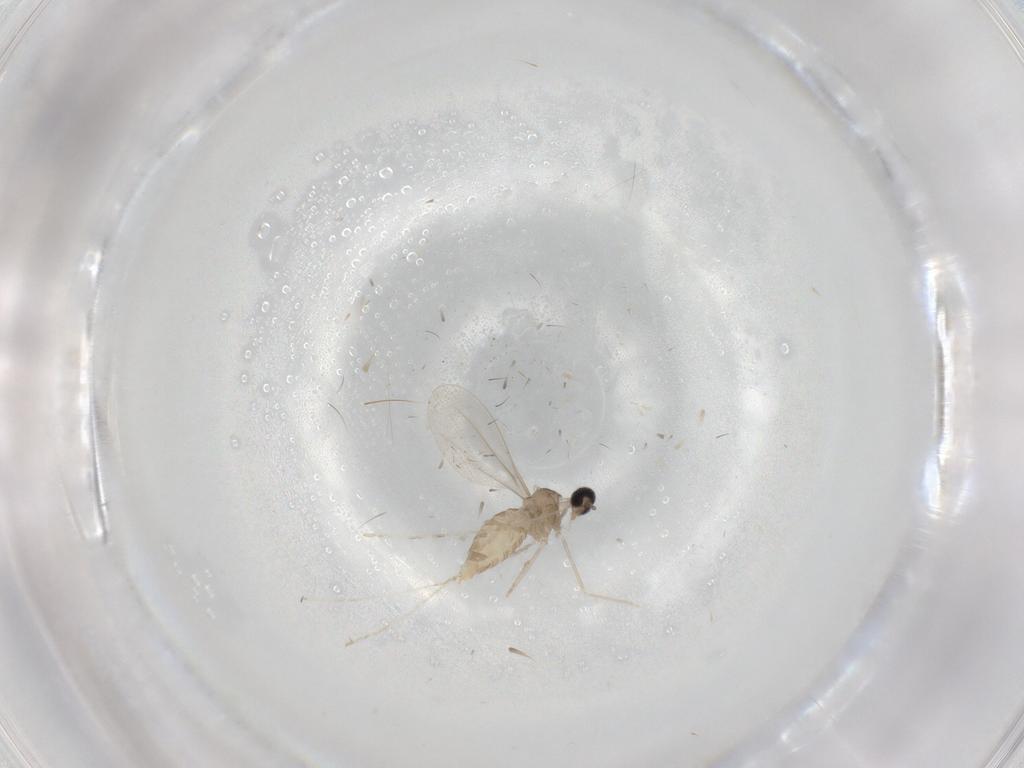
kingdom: Animalia
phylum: Arthropoda
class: Insecta
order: Diptera
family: Cecidomyiidae
